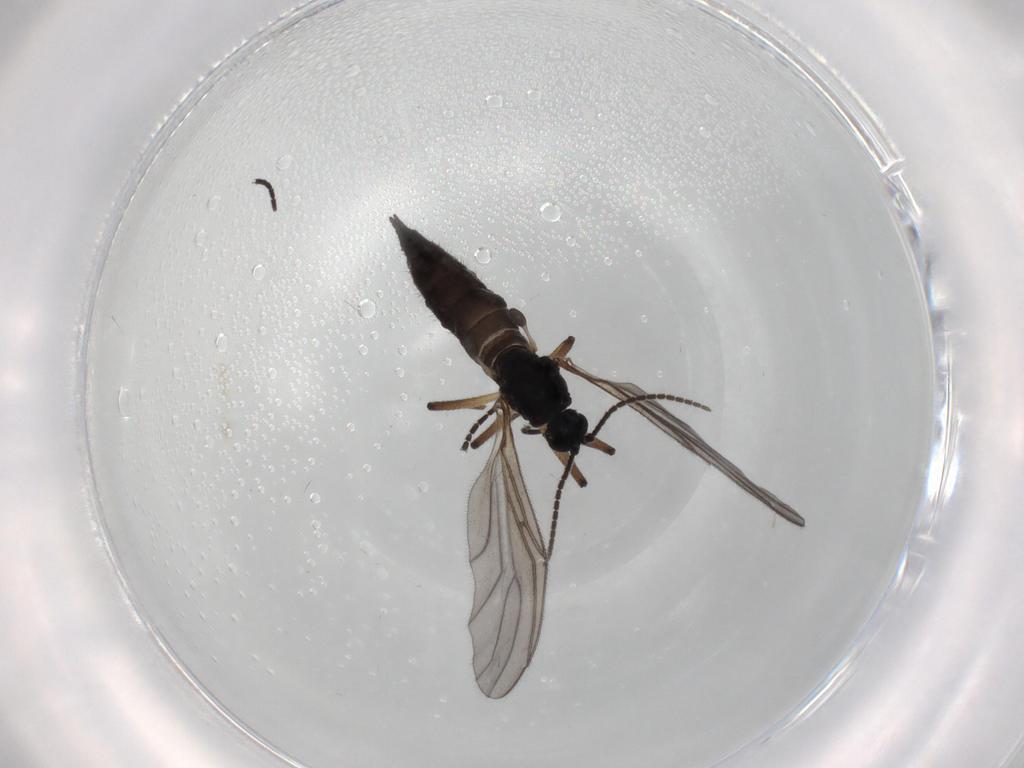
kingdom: Animalia
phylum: Arthropoda
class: Insecta
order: Diptera
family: Sciaridae
